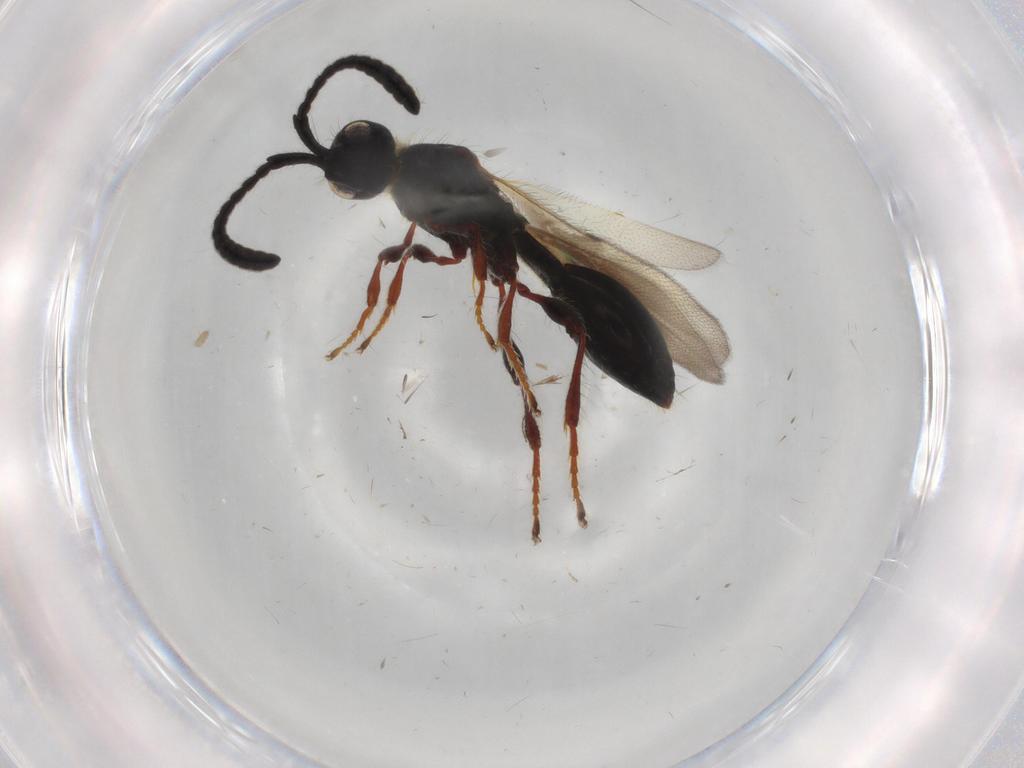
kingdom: Animalia
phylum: Arthropoda
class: Insecta
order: Hymenoptera
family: Diapriidae
